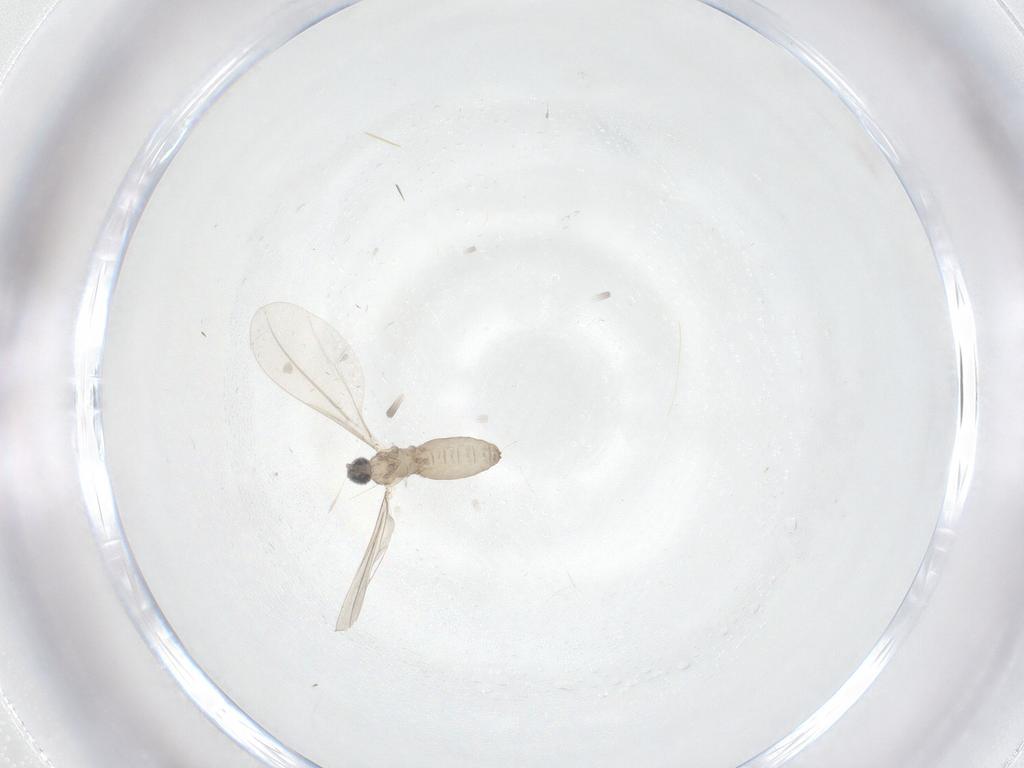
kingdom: Animalia
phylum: Arthropoda
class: Insecta
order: Diptera
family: Cecidomyiidae
